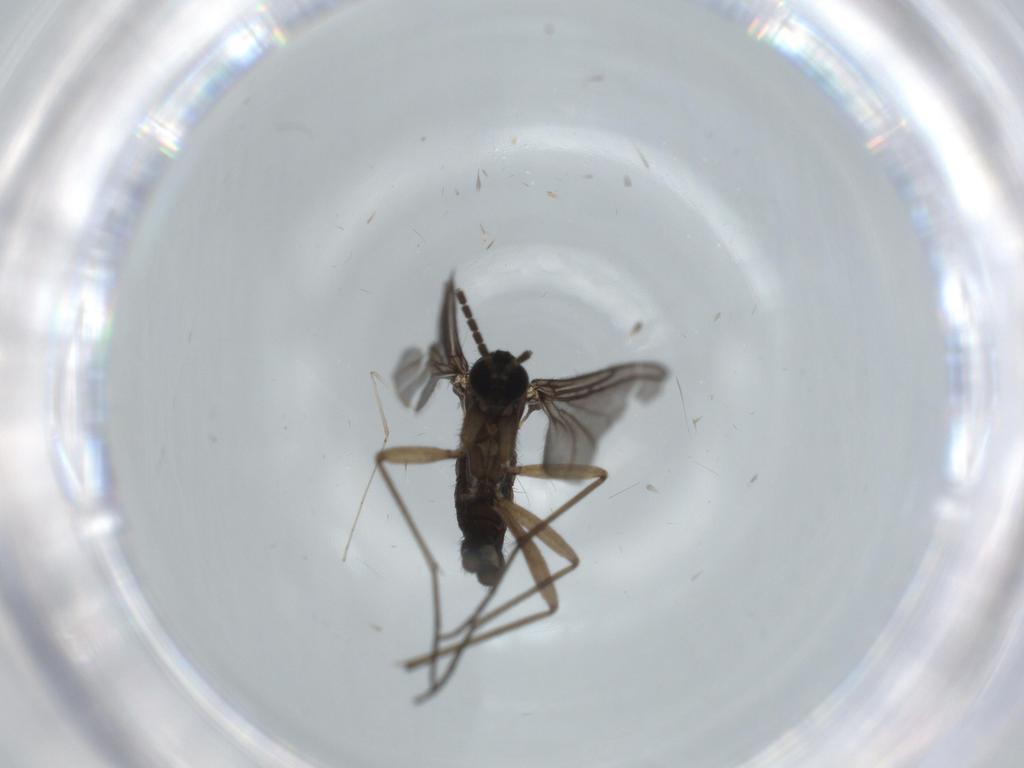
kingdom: Animalia
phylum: Arthropoda
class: Insecta
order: Diptera
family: Sciaridae
